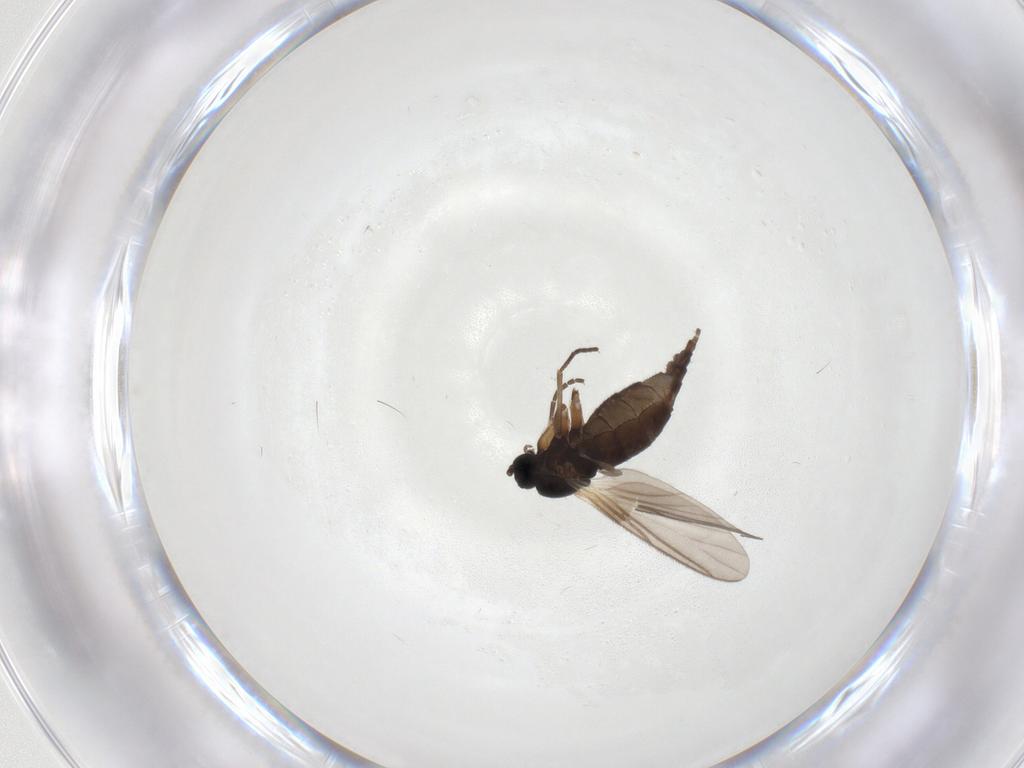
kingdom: Animalia
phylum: Arthropoda
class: Insecta
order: Diptera
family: Sciaridae
